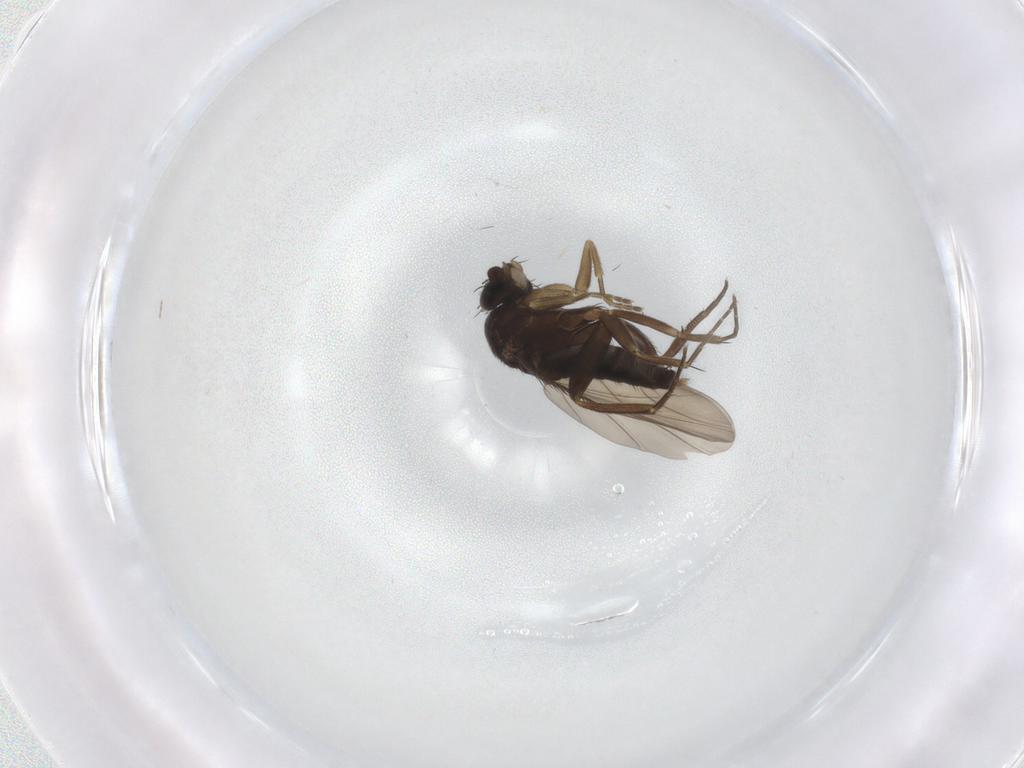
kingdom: Animalia
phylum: Arthropoda
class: Insecta
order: Diptera
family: Phoridae
